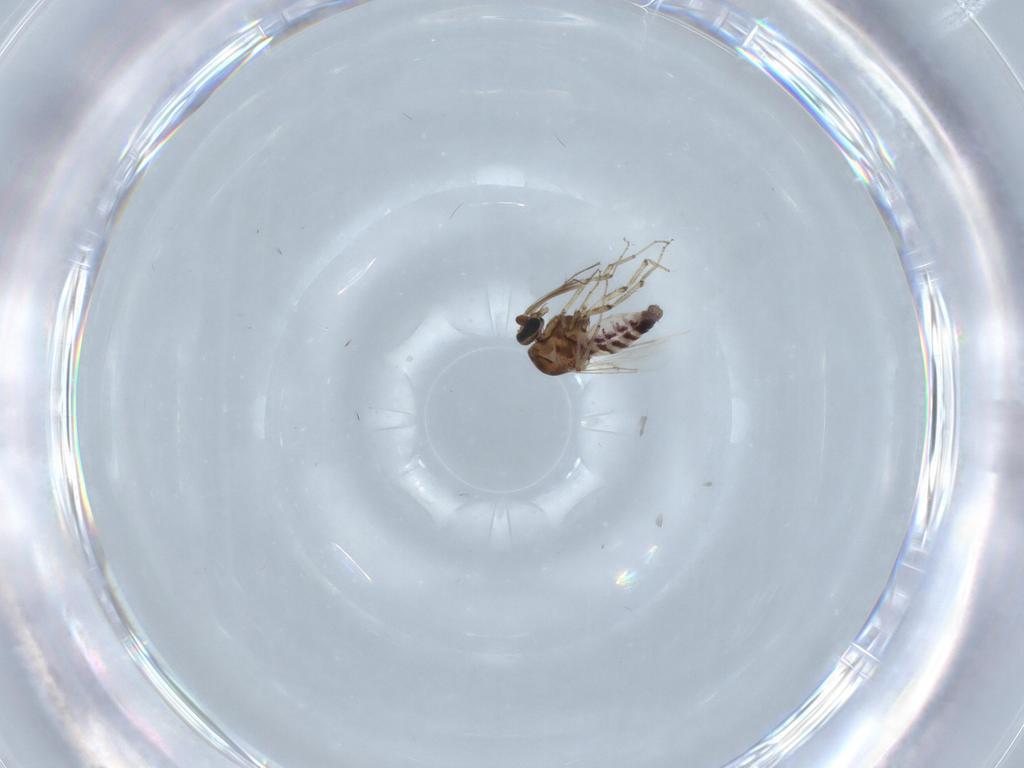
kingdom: Animalia
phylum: Arthropoda
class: Insecta
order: Diptera
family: Ceratopogonidae
